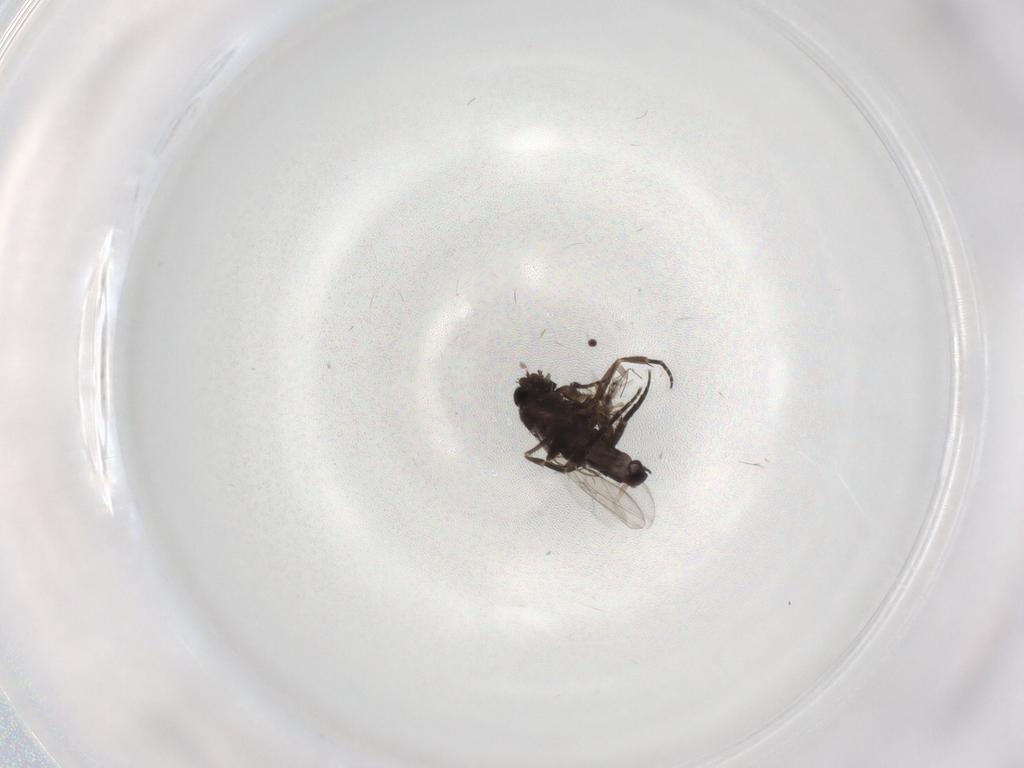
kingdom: Animalia
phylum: Arthropoda
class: Insecta
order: Diptera
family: Phoridae
